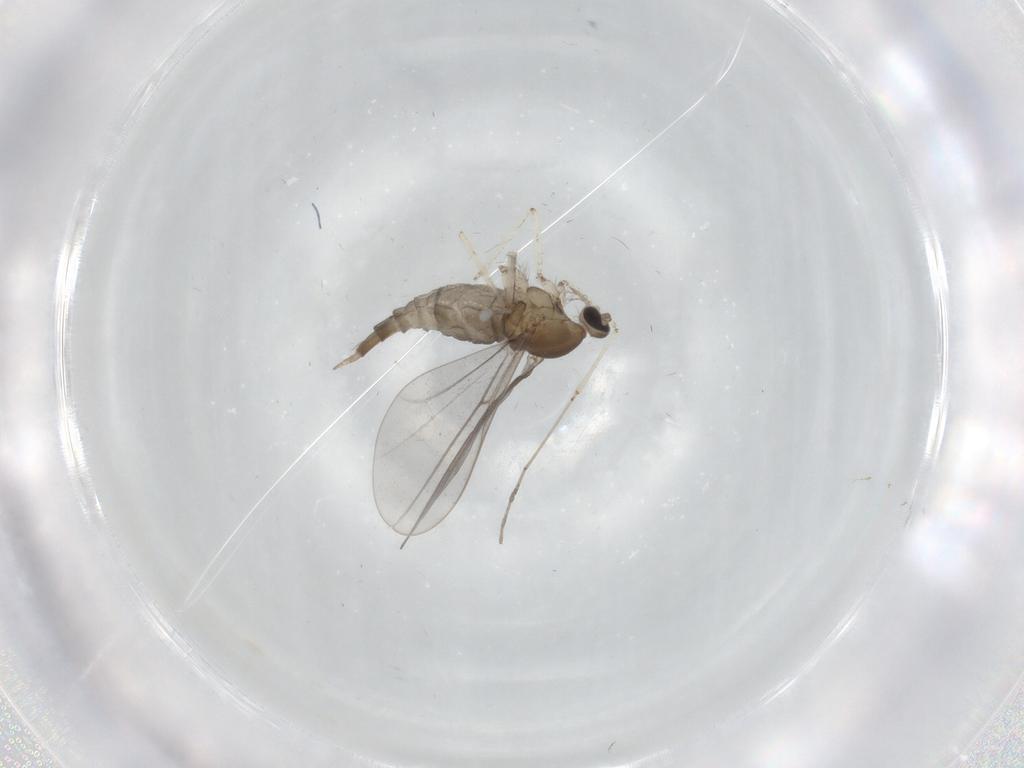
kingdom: Animalia
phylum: Arthropoda
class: Insecta
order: Diptera
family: Cecidomyiidae
